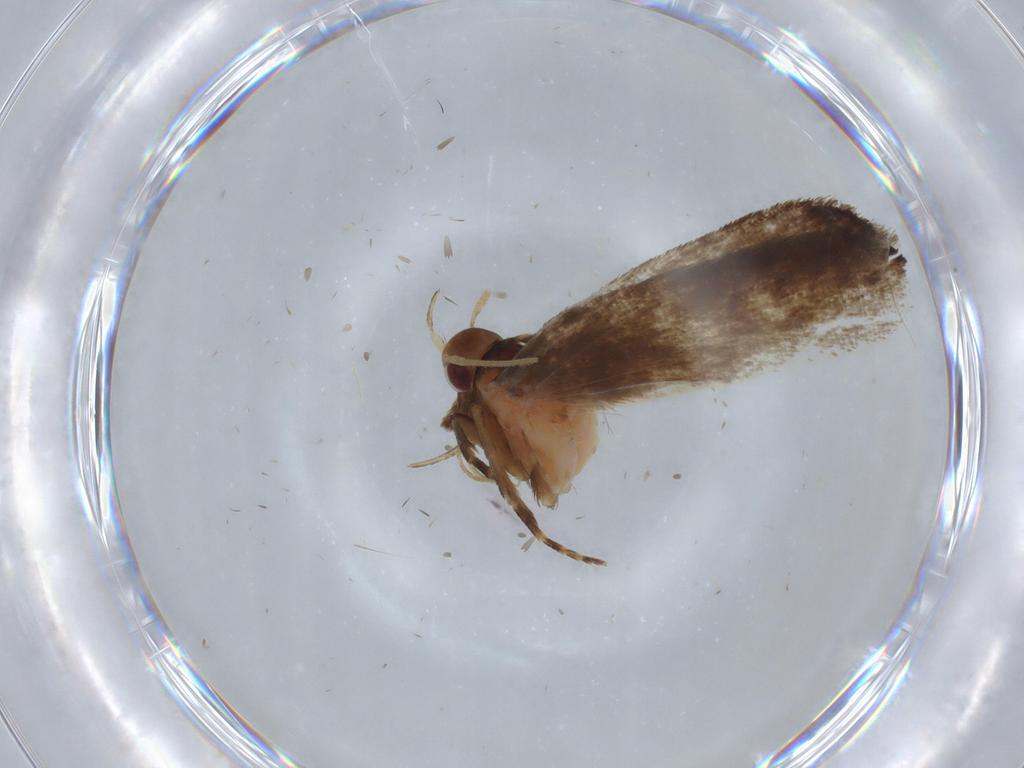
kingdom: Animalia
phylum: Arthropoda
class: Insecta
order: Lepidoptera
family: Gelechiidae
